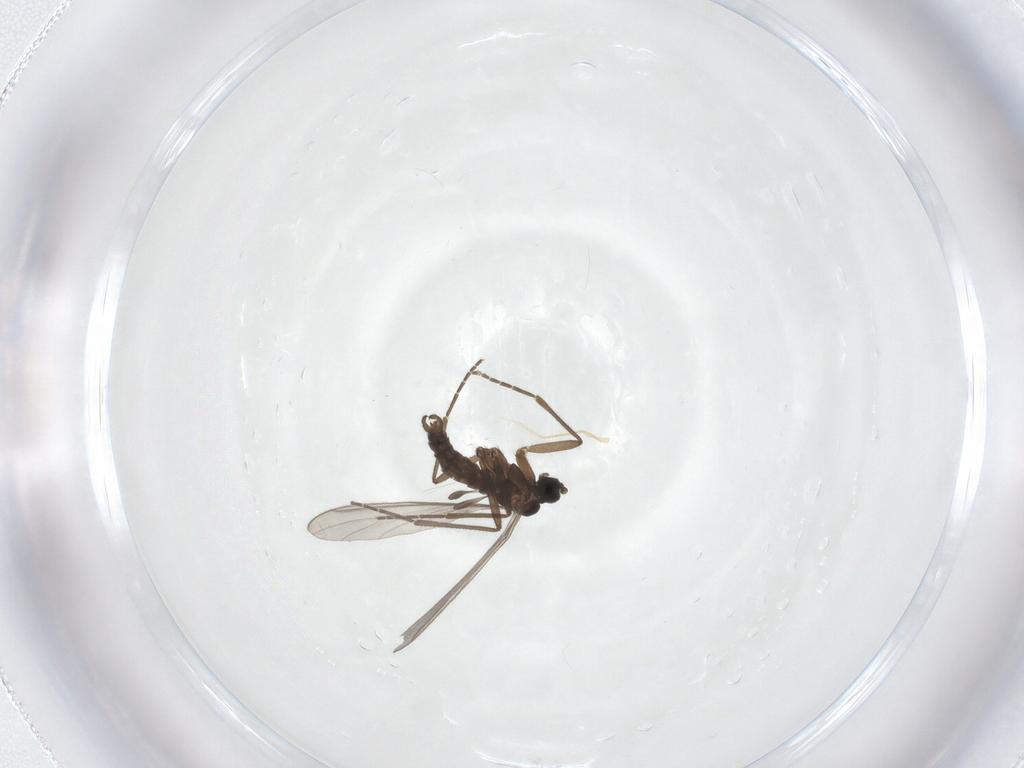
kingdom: Animalia
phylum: Arthropoda
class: Insecta
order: Diptera
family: Sciaridae
